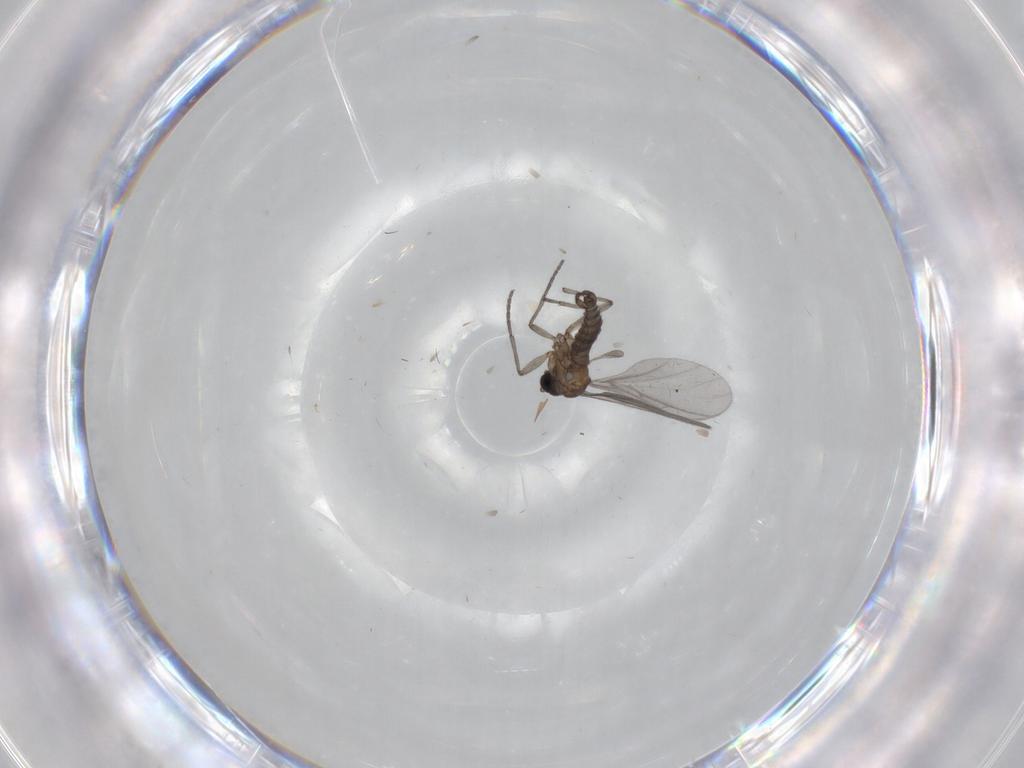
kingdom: Animalia
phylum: Arthropoda
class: Insecta
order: Diptera
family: Sciaridae
